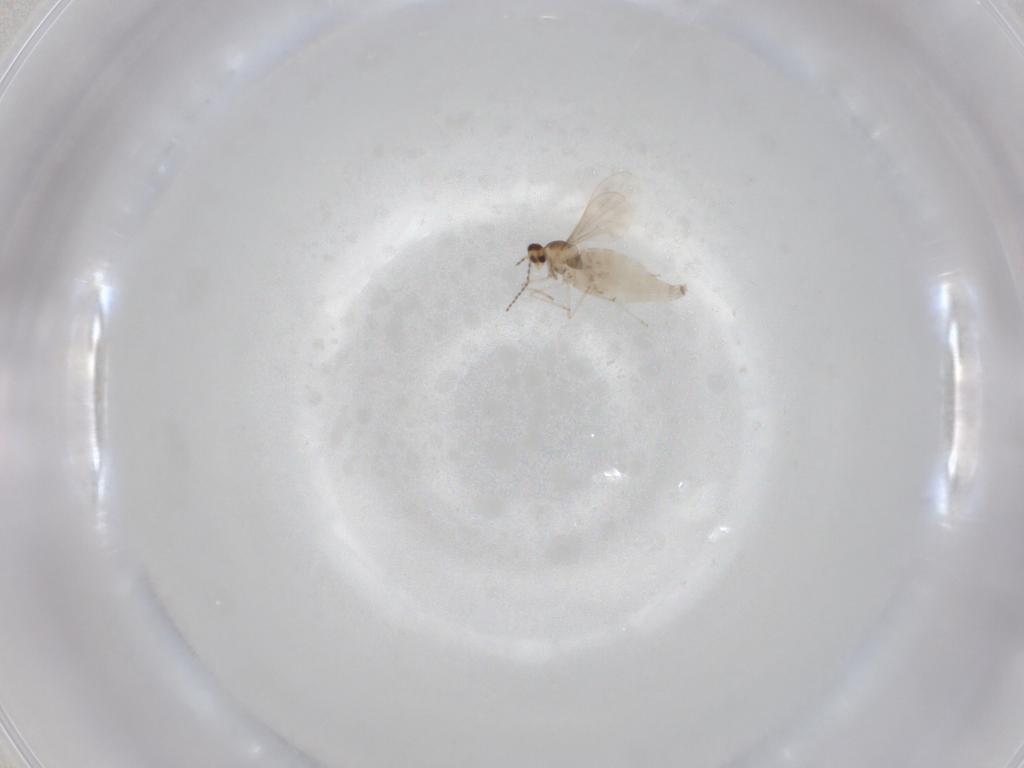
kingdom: Animalia
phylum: Arthropoda
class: Insecta
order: Diptera
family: Cecidomyiidae
